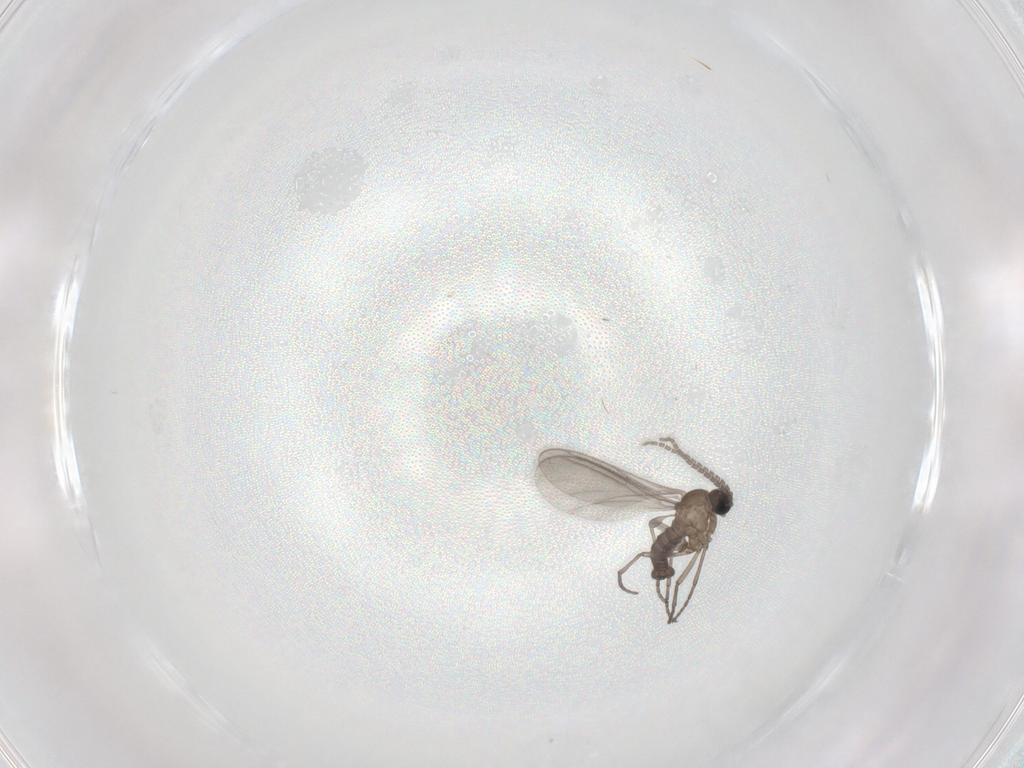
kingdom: Animalia
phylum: Arthropoda
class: Insecta
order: Diptera
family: Sciaridae
